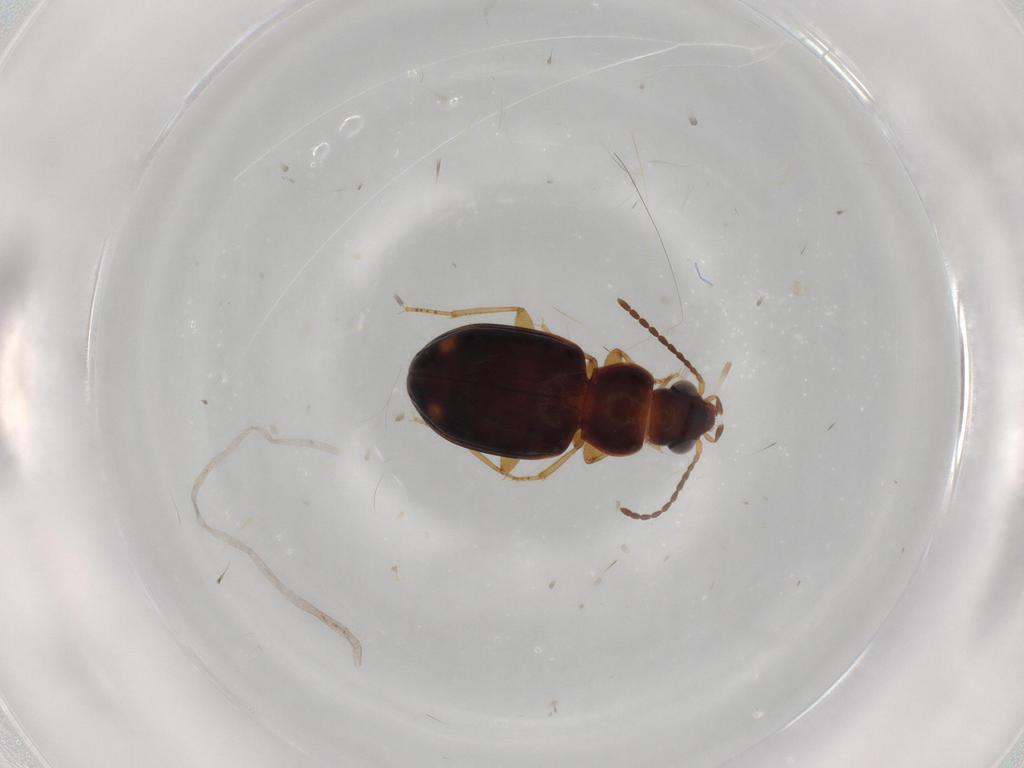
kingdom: Animalia
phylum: Arthropoda
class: Insecta
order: Coleoptera
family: Carabidae
